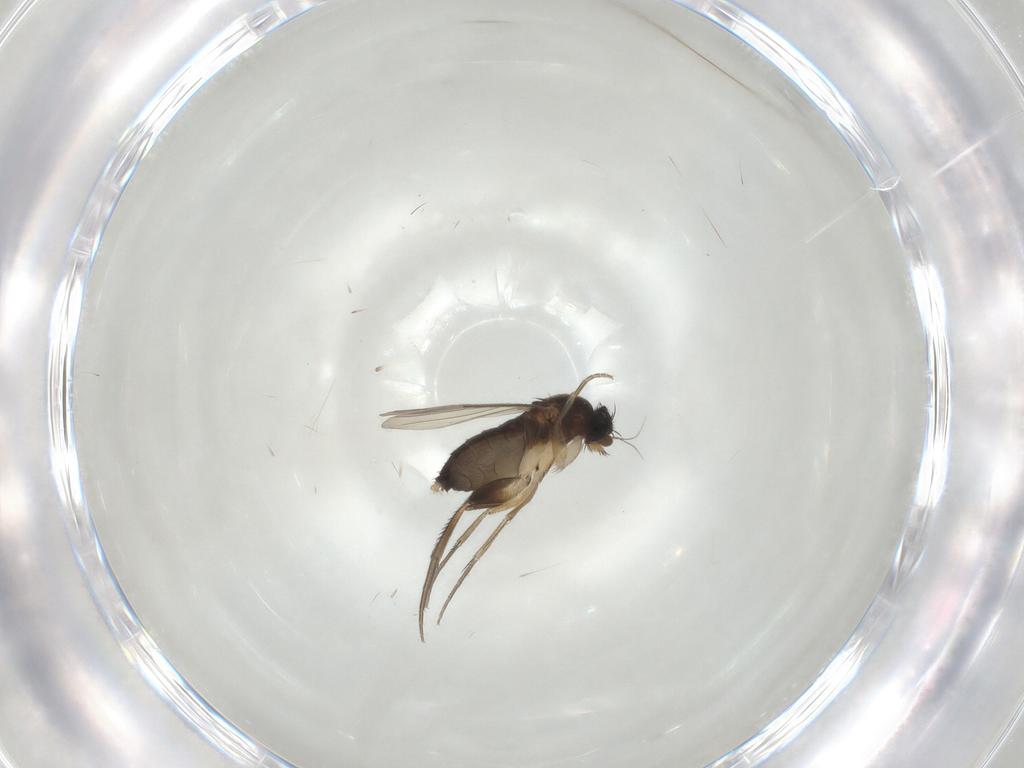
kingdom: Animalia
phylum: Arthropoda
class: Insecta
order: Diptera
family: Phoridae
